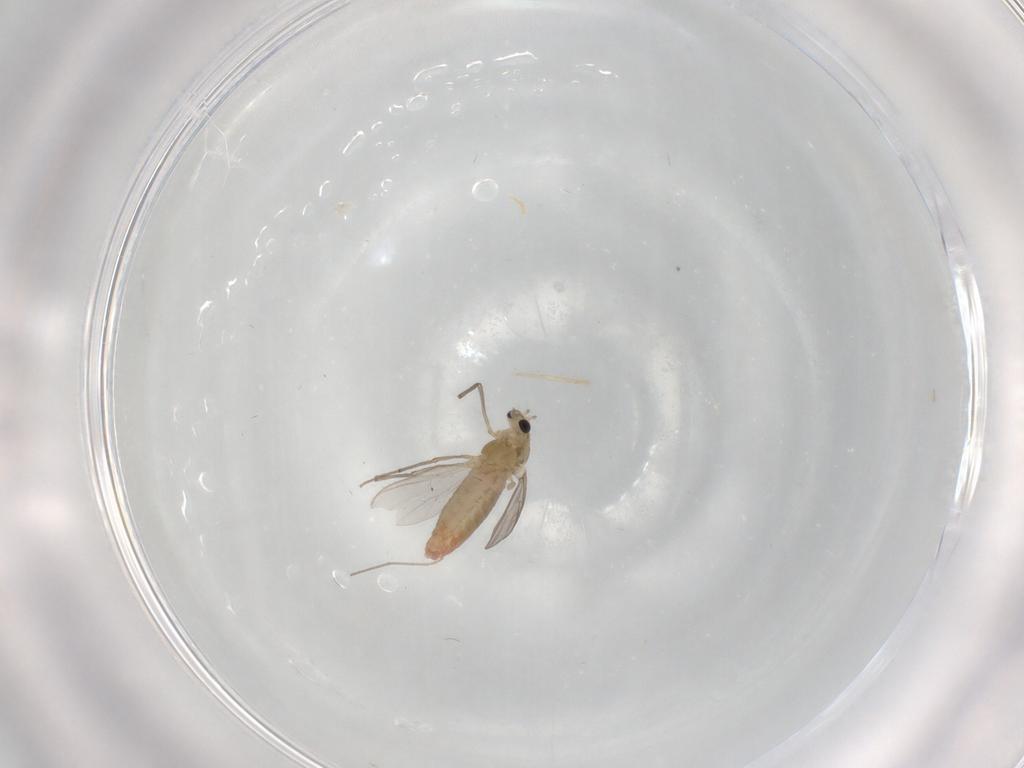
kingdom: Animalia
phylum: Arthropoda
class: Insecta
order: Diptera
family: Chironomidae
